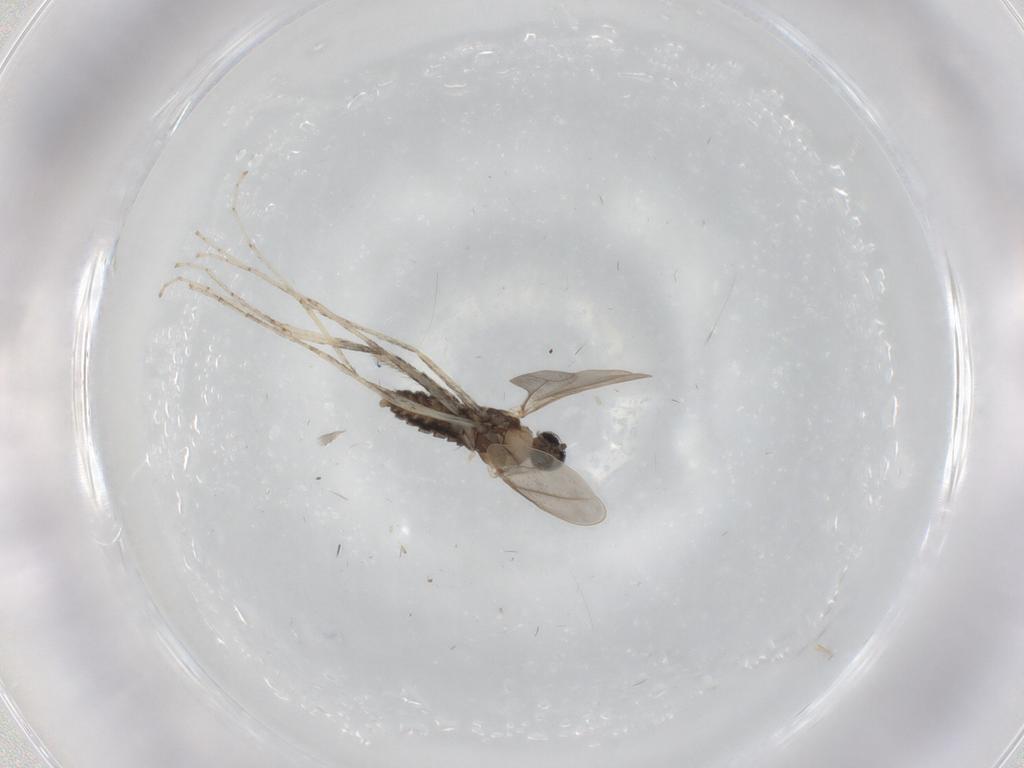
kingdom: Animalia
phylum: Arthropoda
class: Insecta
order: Diptera
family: Cecidomyiidae
